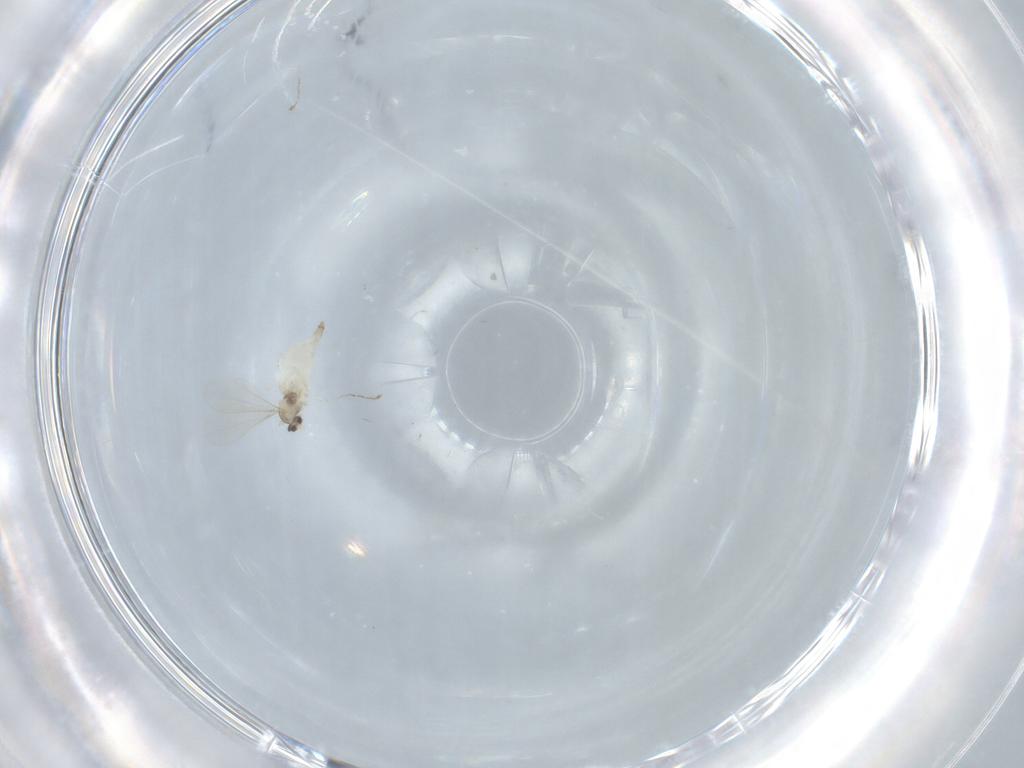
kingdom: Animalia
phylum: Arthropoda
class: Insecta
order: Diptera
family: Cecidomyiidae
